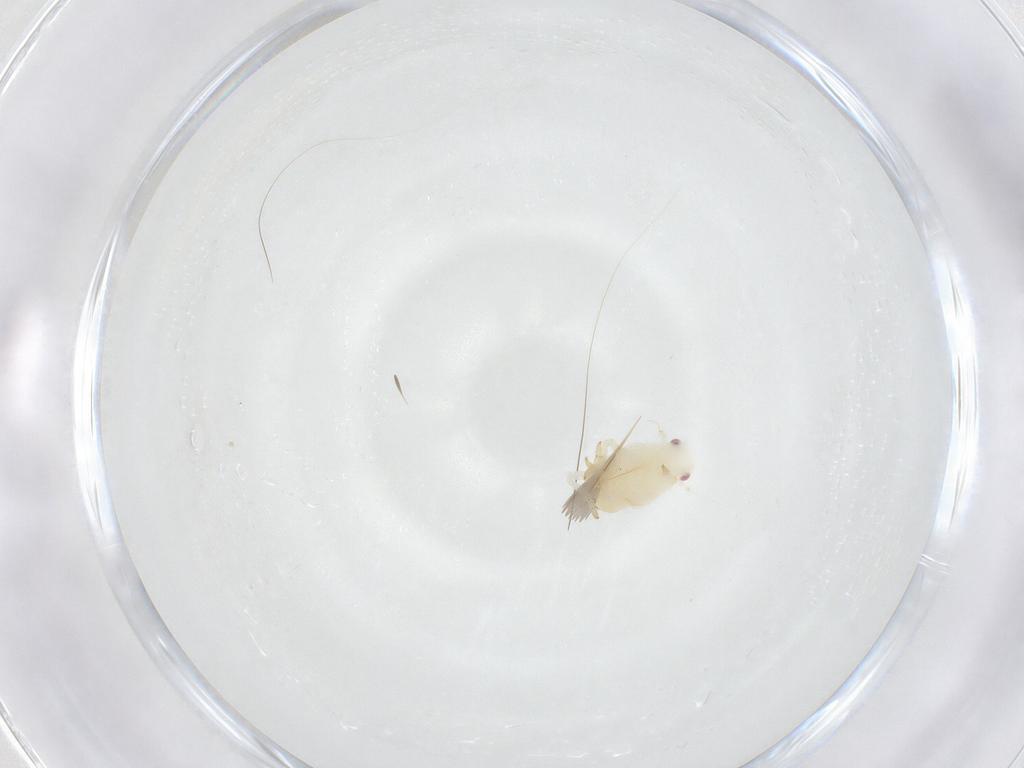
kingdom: Animalia
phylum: Arthropoda
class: Insecta
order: Hemiptera
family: Flatidae
